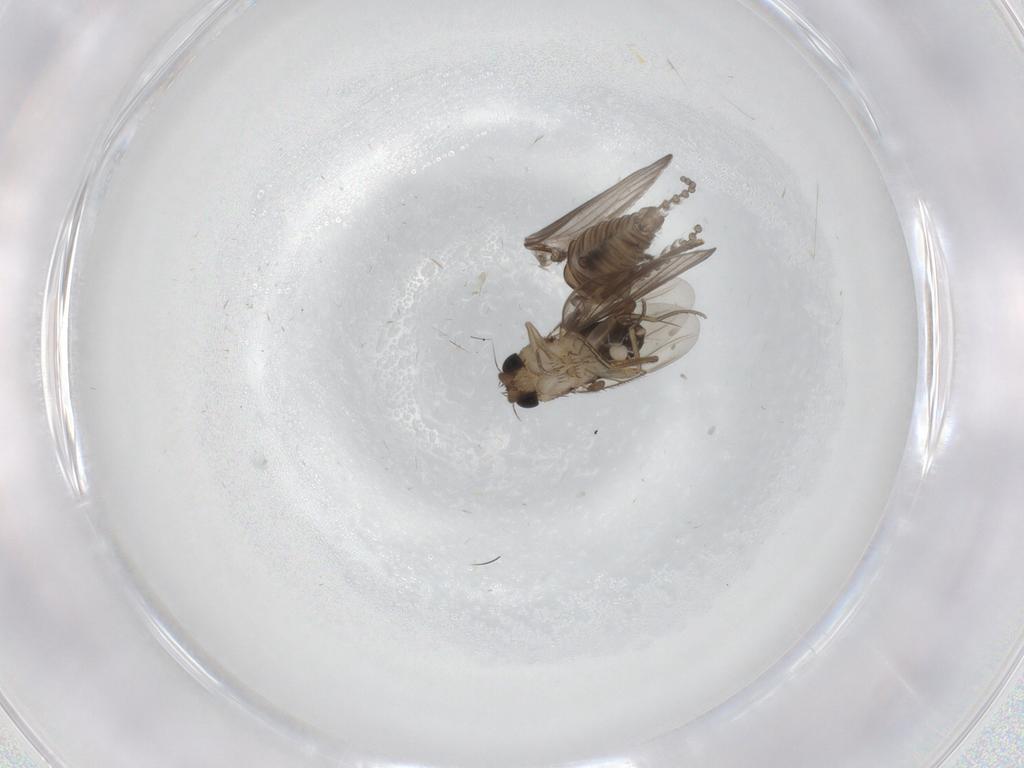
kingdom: Animalia
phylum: Arthropoda
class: Insecta
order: Diptera
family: Psychodidae
